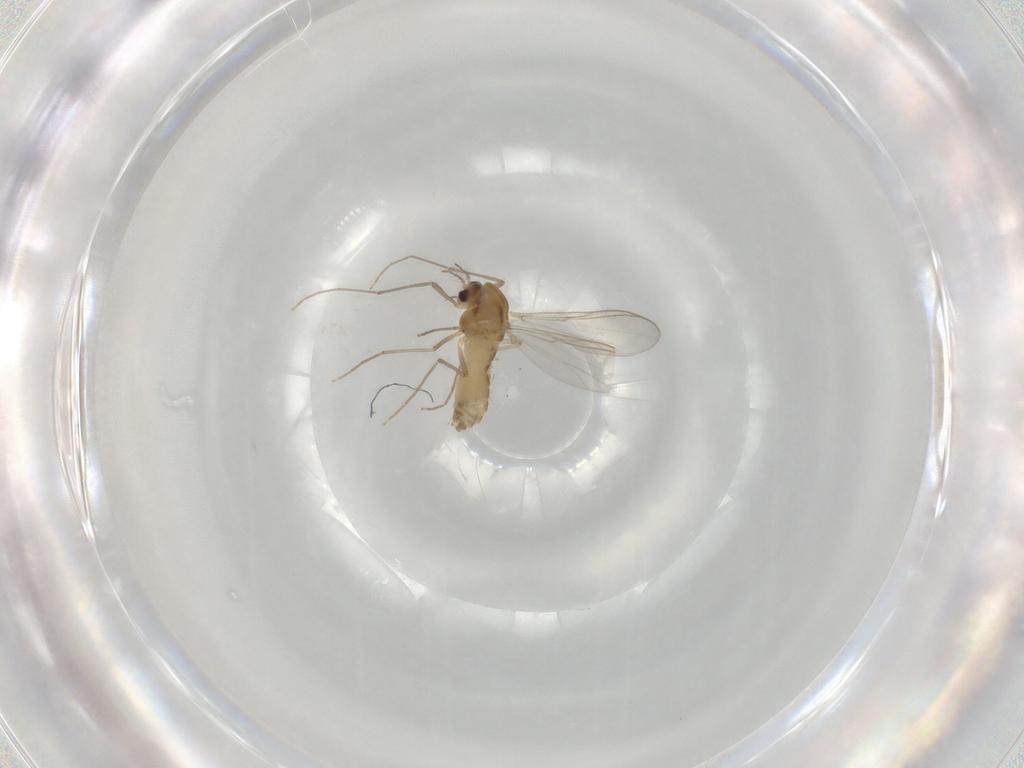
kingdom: Animalia
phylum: Arthropoda
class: Insecta
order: Diptera
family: Chironomidae
